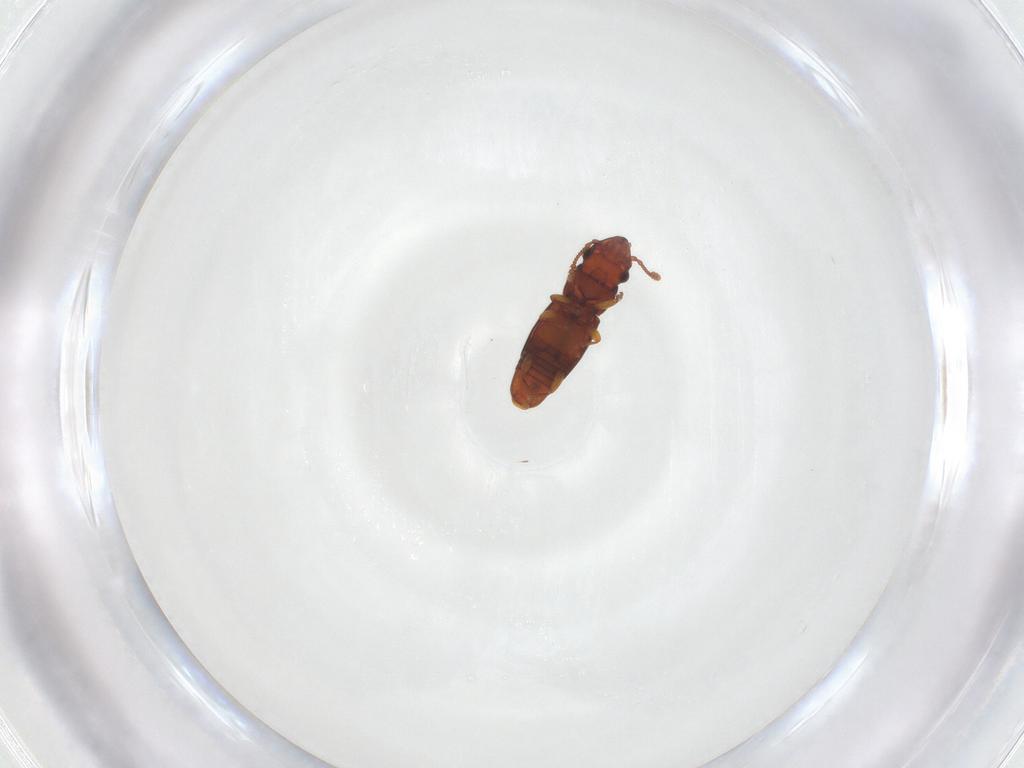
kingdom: Animalia
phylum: Arthropoda
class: Insecta
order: Coleoptera
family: Smicripidae
